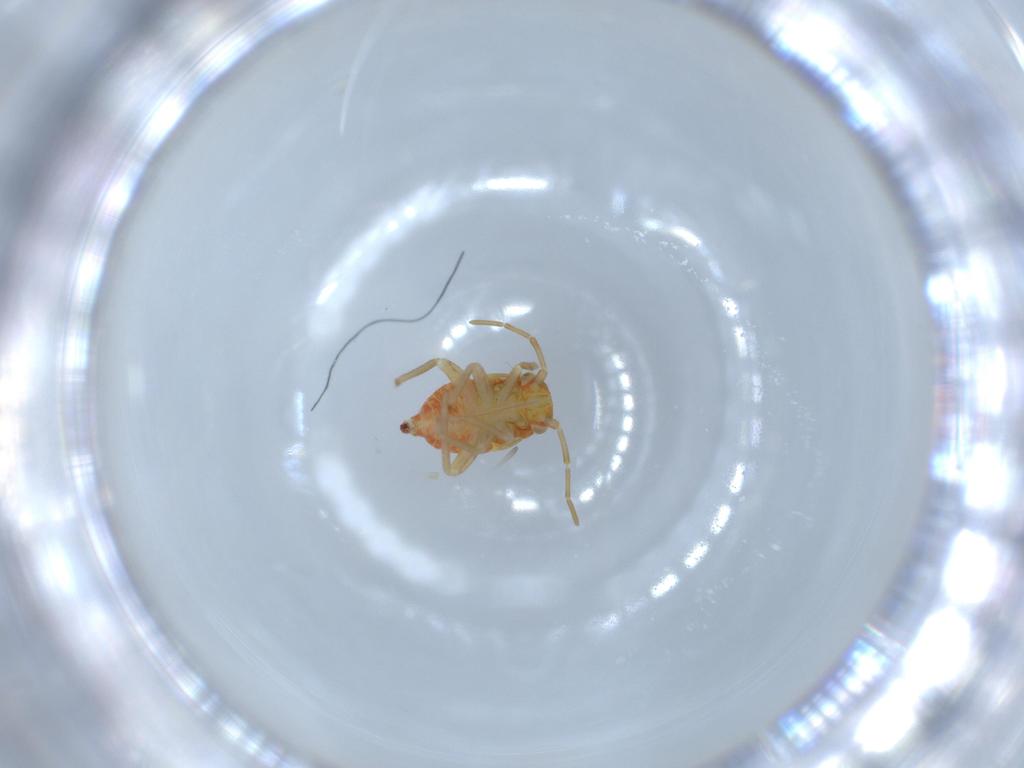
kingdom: Animalia
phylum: Arthropoda
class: Insecta
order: Hemiptera
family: Miridae
